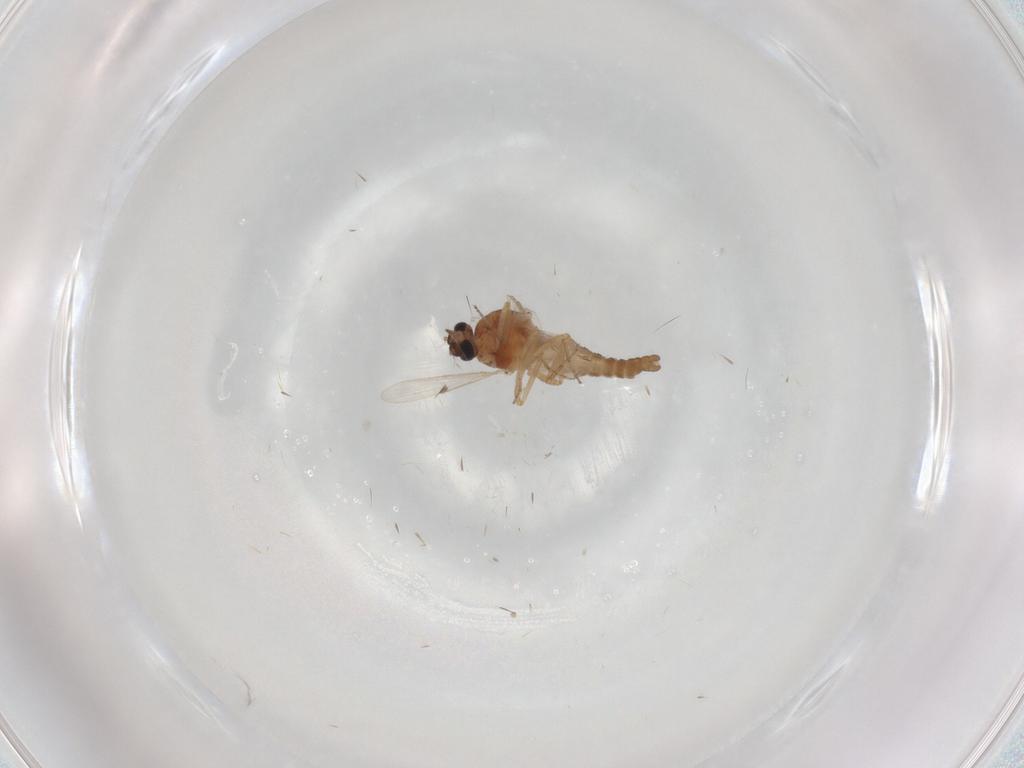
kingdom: Animalia
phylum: Arthropoda
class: Insecta
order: Diptera
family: Ceratopogonidae
